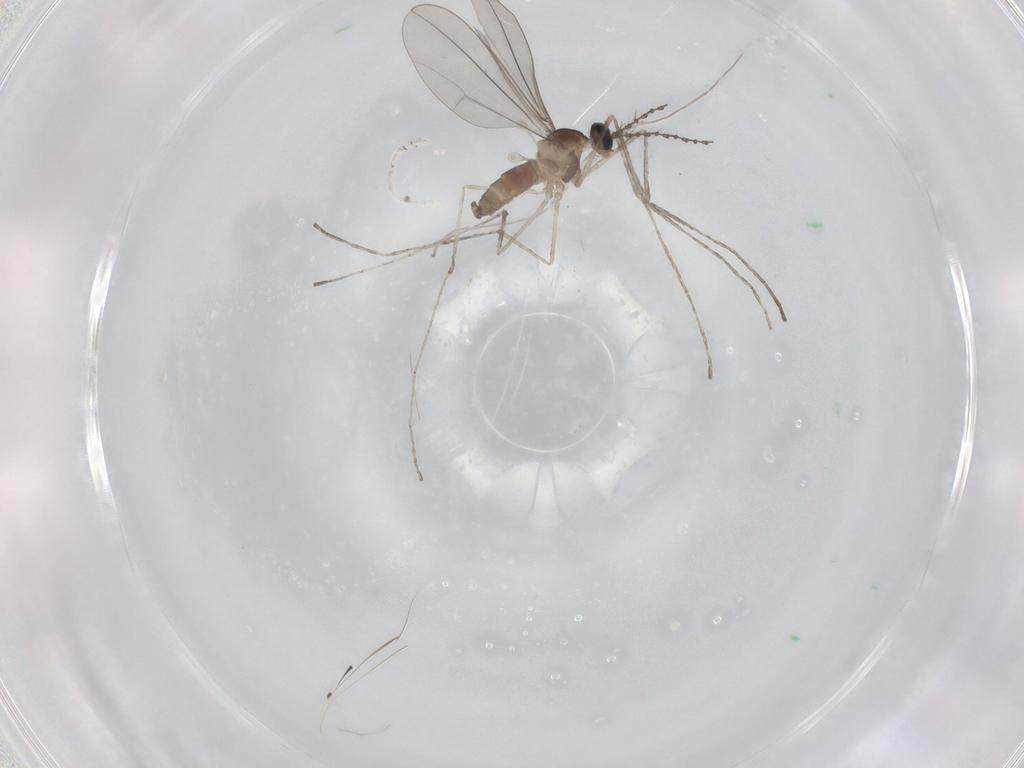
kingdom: Animalia
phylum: Arthropoda
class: Insecta
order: Diptera
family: Cecidomyiidae
